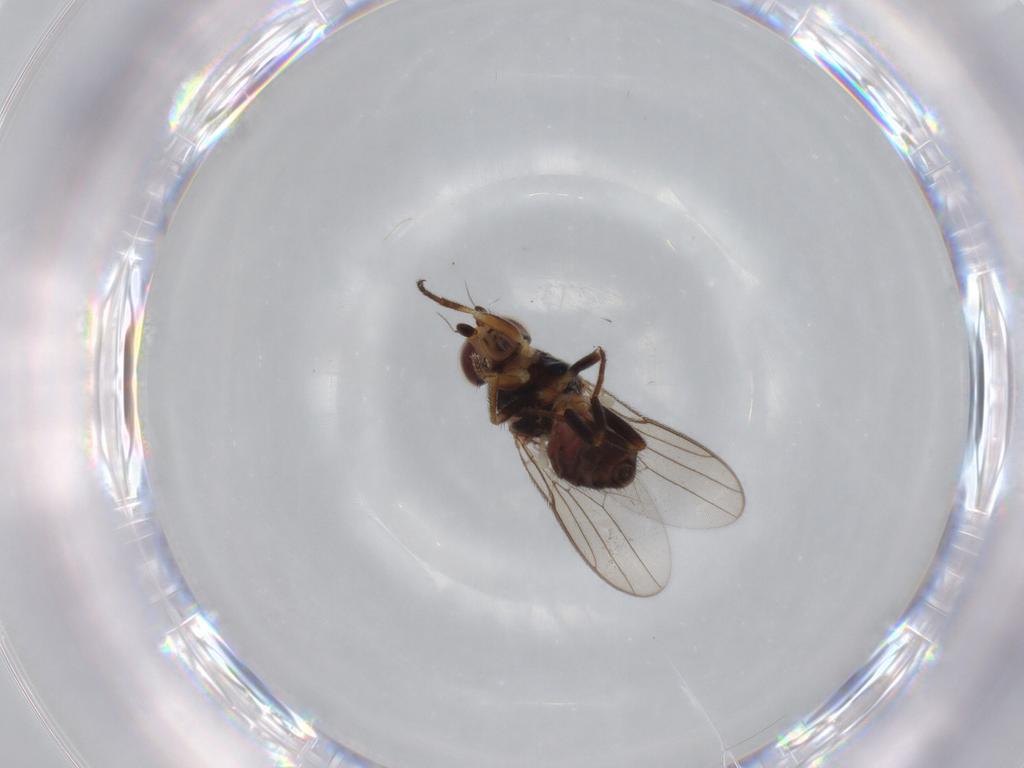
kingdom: Animalia
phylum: Arthropoda
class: Insecta
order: Diptera
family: Chloropidae
